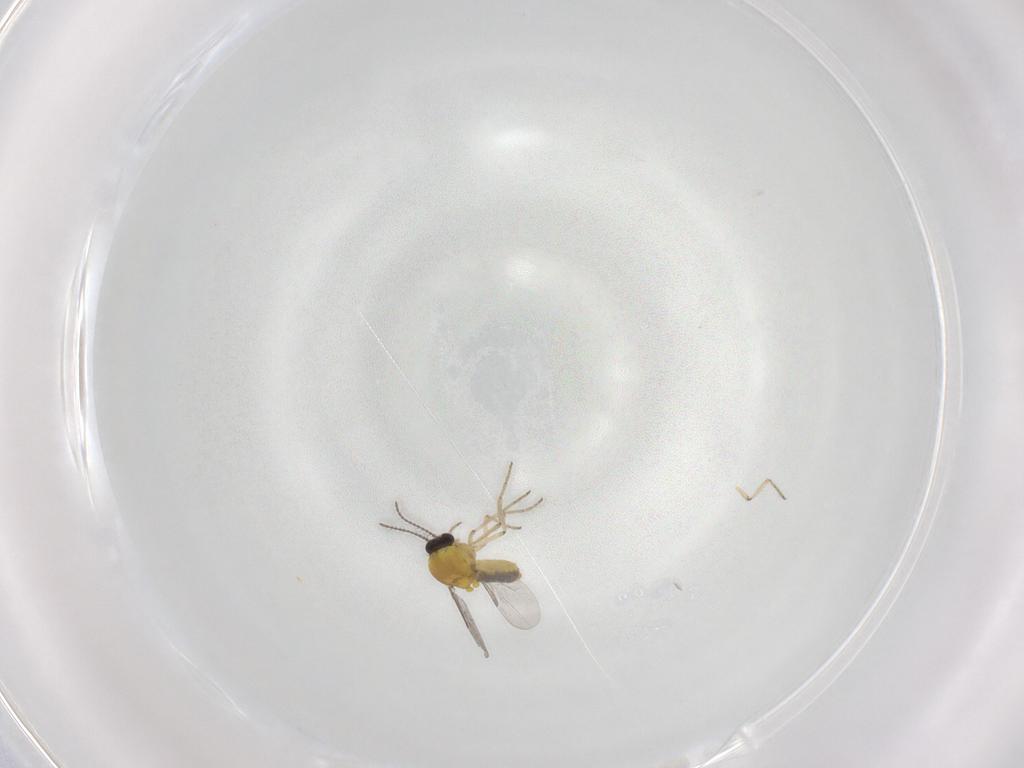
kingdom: Animalia
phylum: Arthropoda
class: Insecta
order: Diptera
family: Ceratopogonidae
